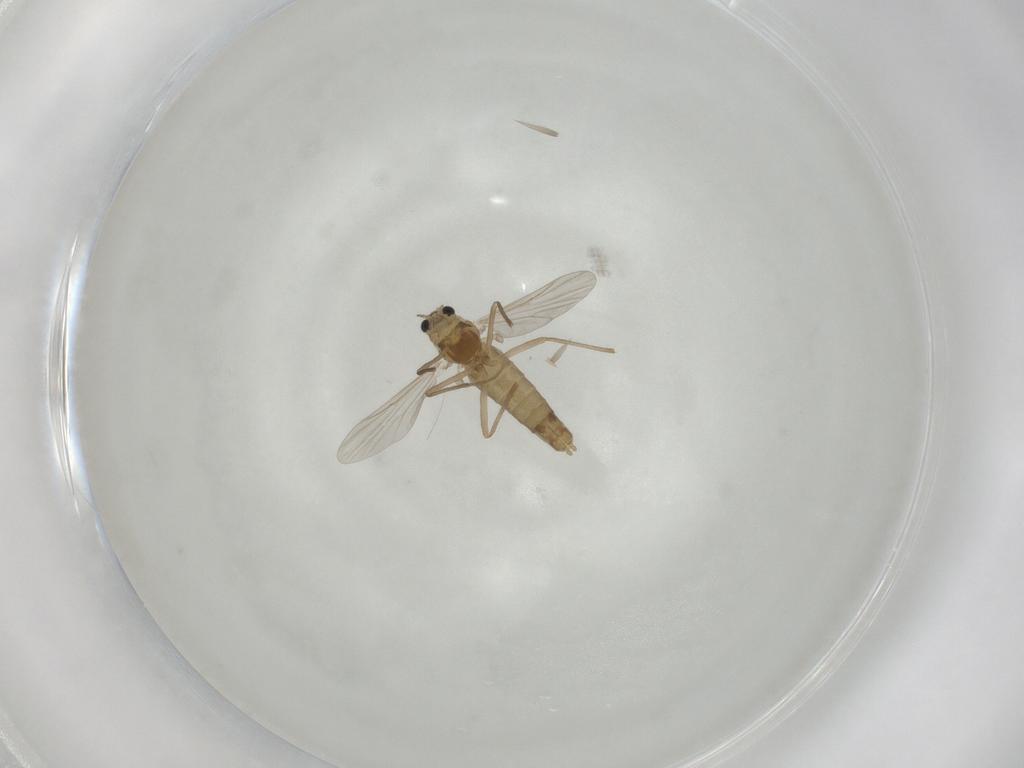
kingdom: Animalia
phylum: Arthropoda
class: Insecta
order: Diptera
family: Chironomidae
